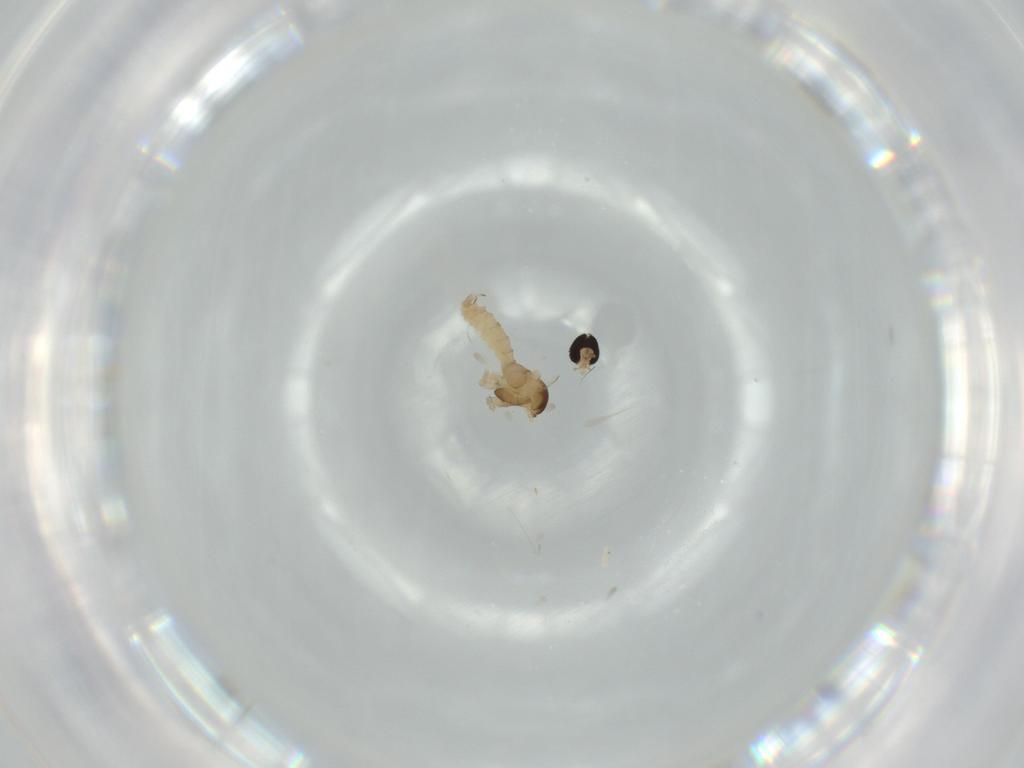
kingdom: Animalia
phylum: Arthropoda
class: Insecta
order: Diptera
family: Cecidomyiidae
